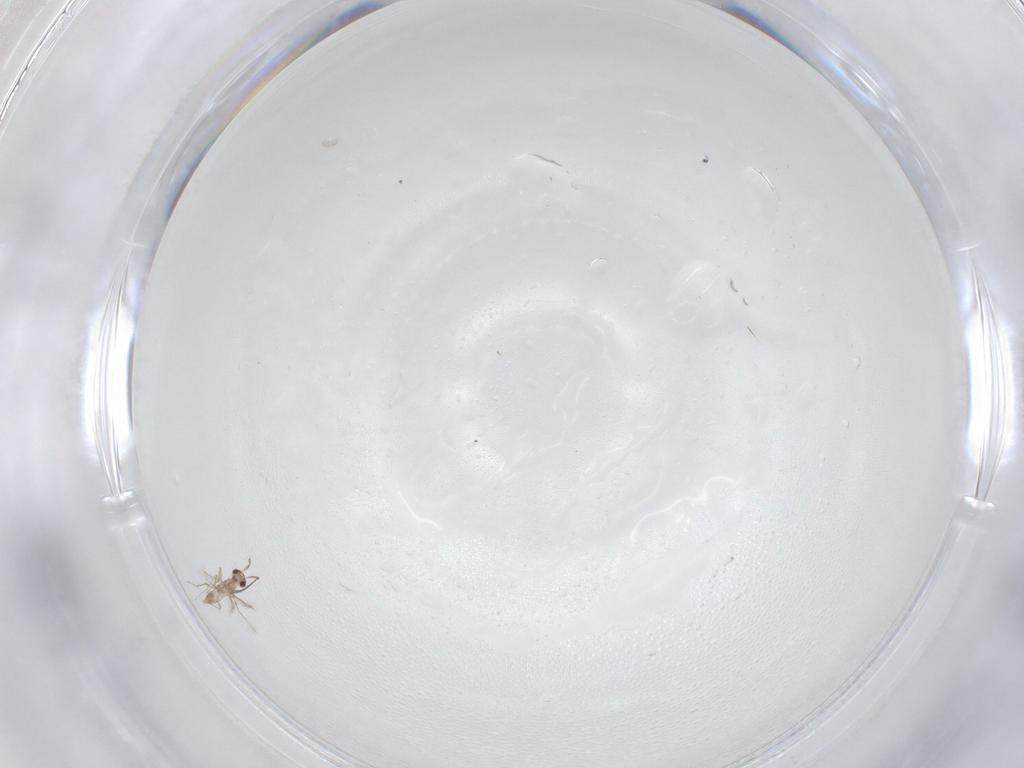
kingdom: Animalia
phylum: Arthropoda
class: Insecta
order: Hymenoptera
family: Mymaridae
